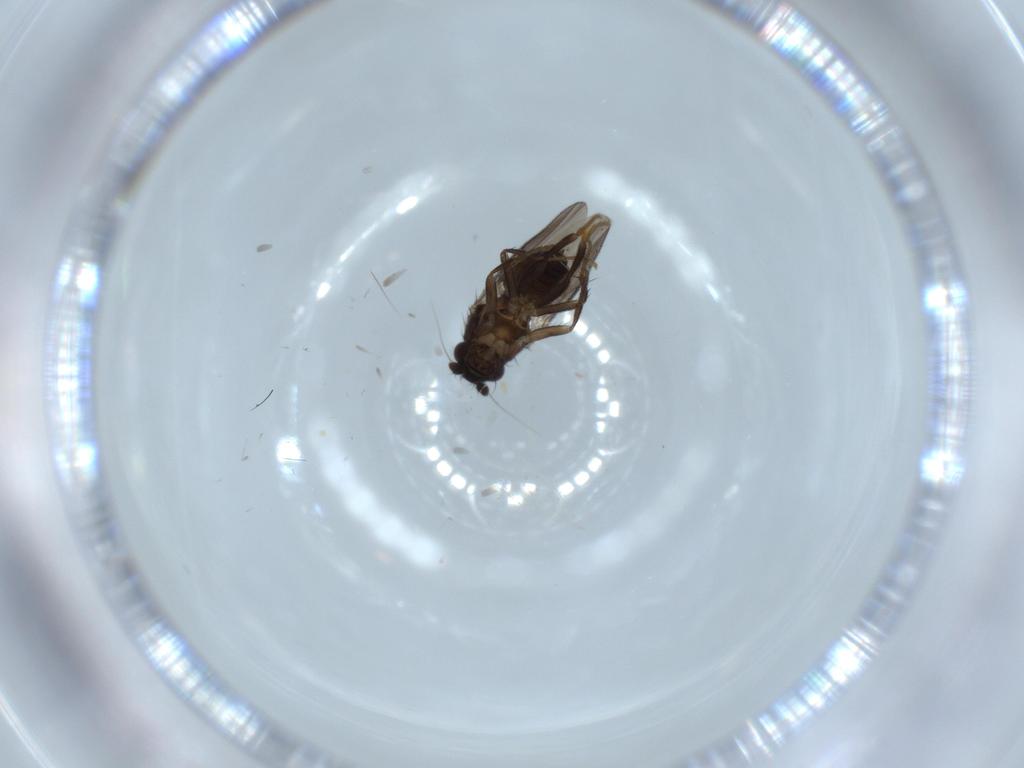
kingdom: Animalia
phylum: Arthropoda
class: Insecta
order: Diptera
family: Sphaeroceridae
